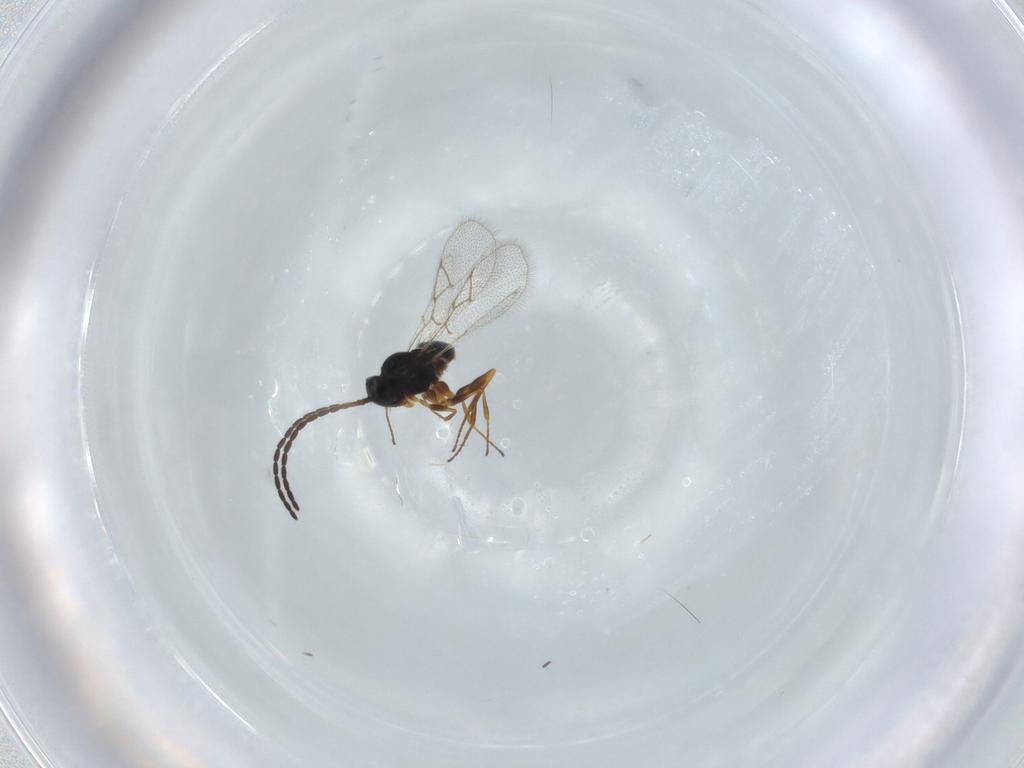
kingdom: Animalia
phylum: Arthropoda
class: Insecta
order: Hymenoptera
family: Figitidae
